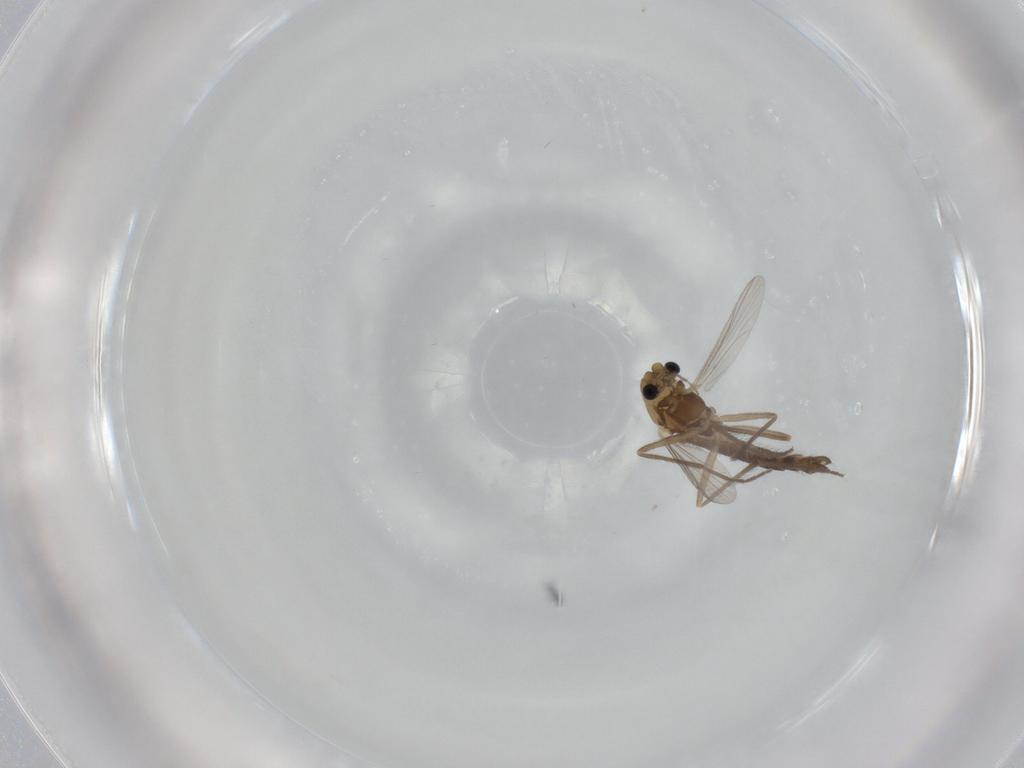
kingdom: Animalia
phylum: Arthropoda
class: Insecta
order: Diptera
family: Chironomidae
